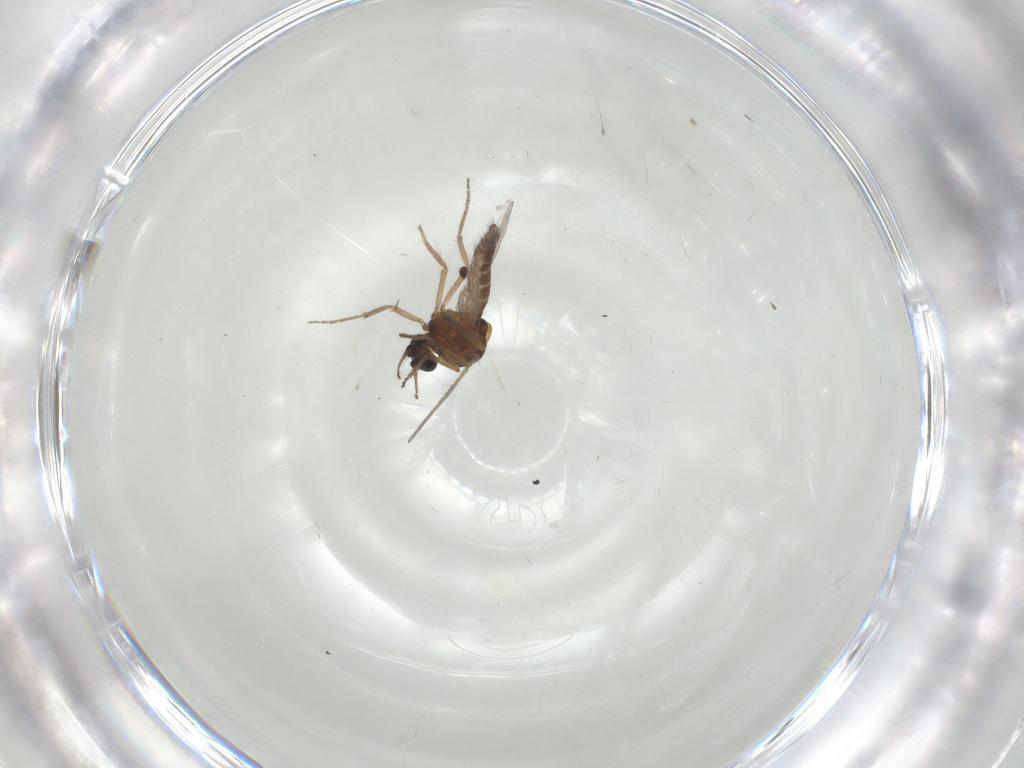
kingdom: Animalia
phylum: Arthropoda
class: Insecta
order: Diptera
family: Cecidomyiidae
